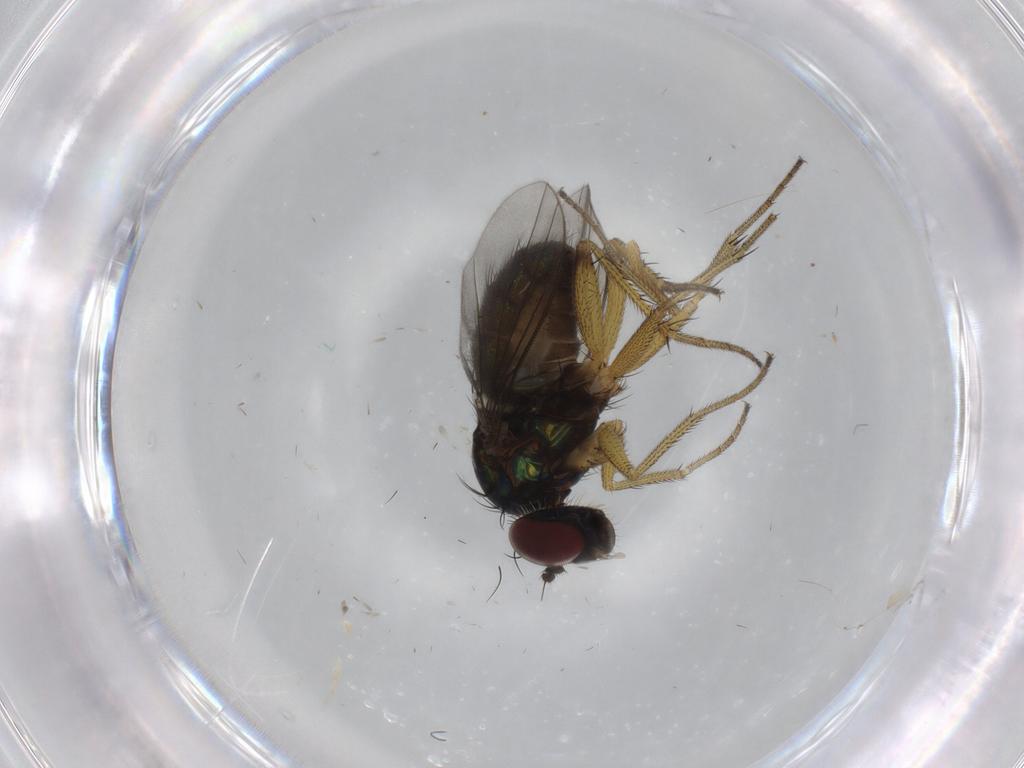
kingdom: Animalia
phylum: Arthropoda
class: Insecta
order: Diptera
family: Dolichopodidae
